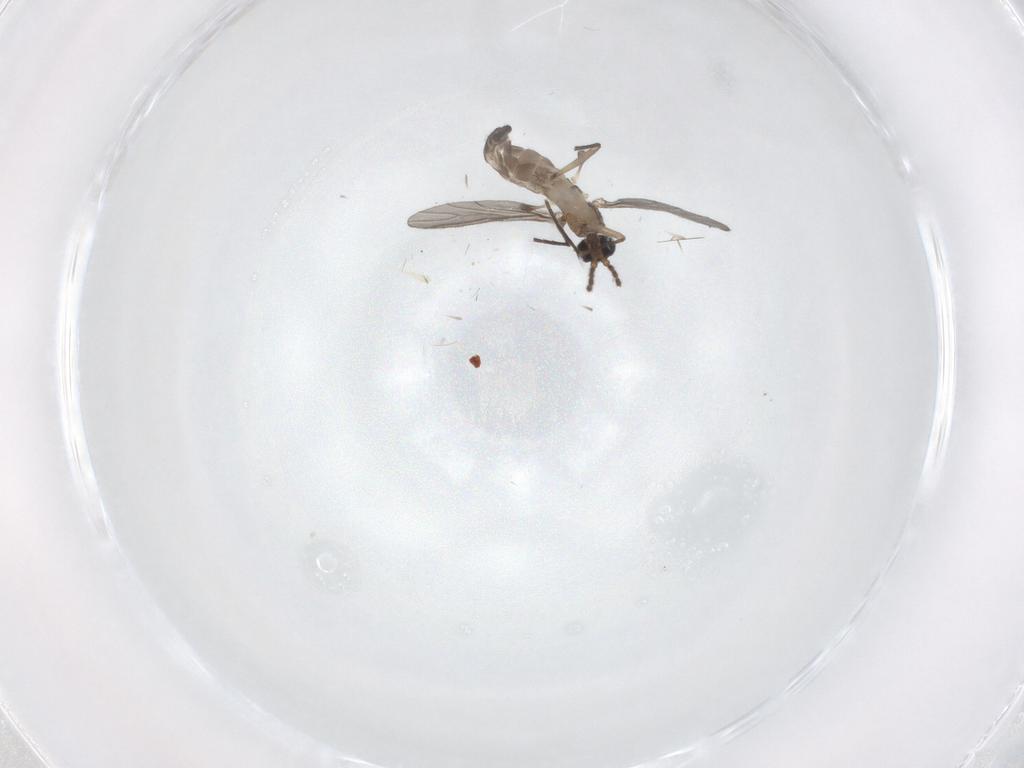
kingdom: Animalia
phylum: Arthropoda
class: Insecta
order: Diptera
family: Sciaridae
